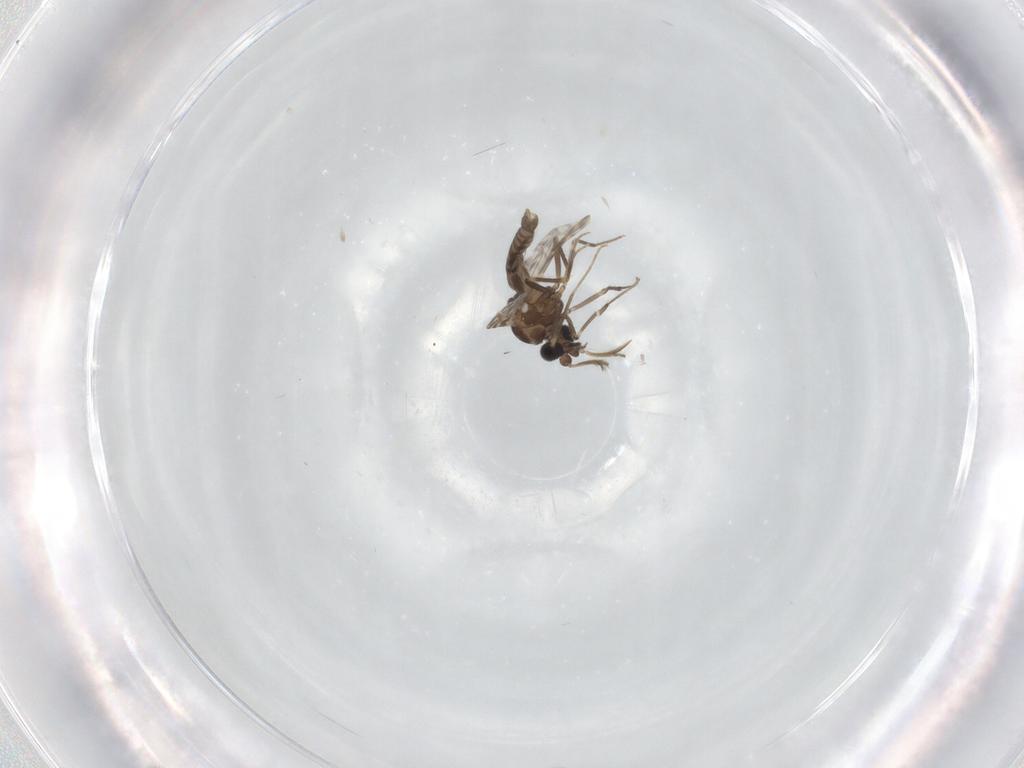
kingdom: Animalia
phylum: Arthropoda
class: Insecta
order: Diptera
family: Ceratopogonidae
